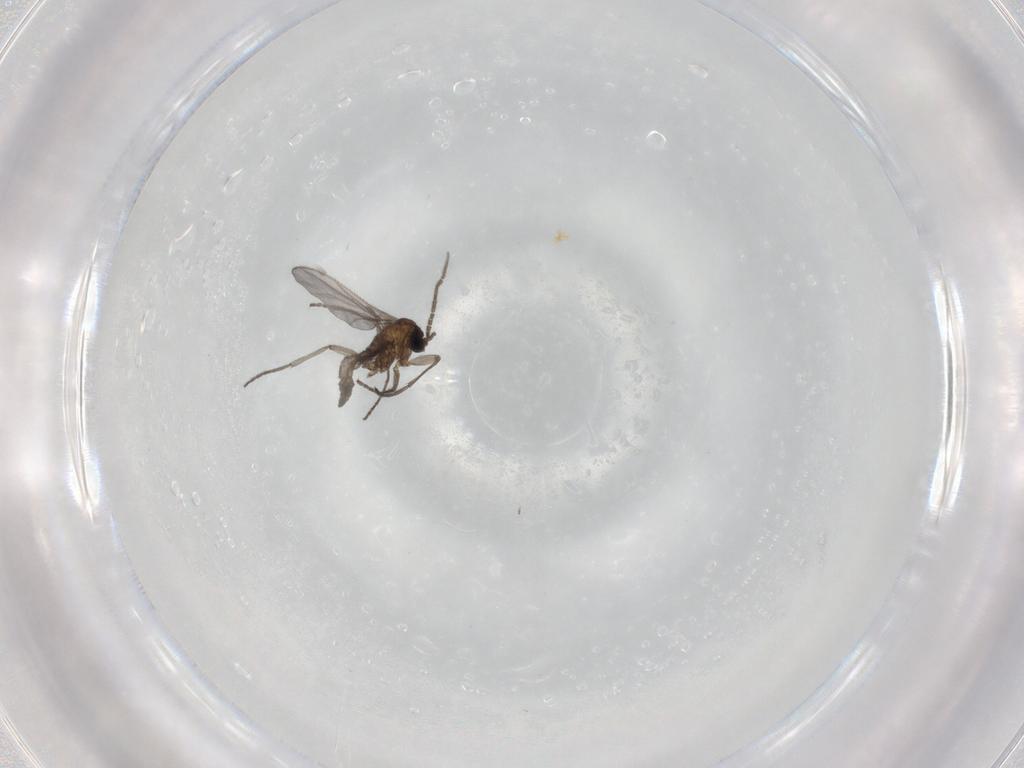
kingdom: Animalia
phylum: Arthropoda
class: Insecta
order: Diptera
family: Sciaridae
